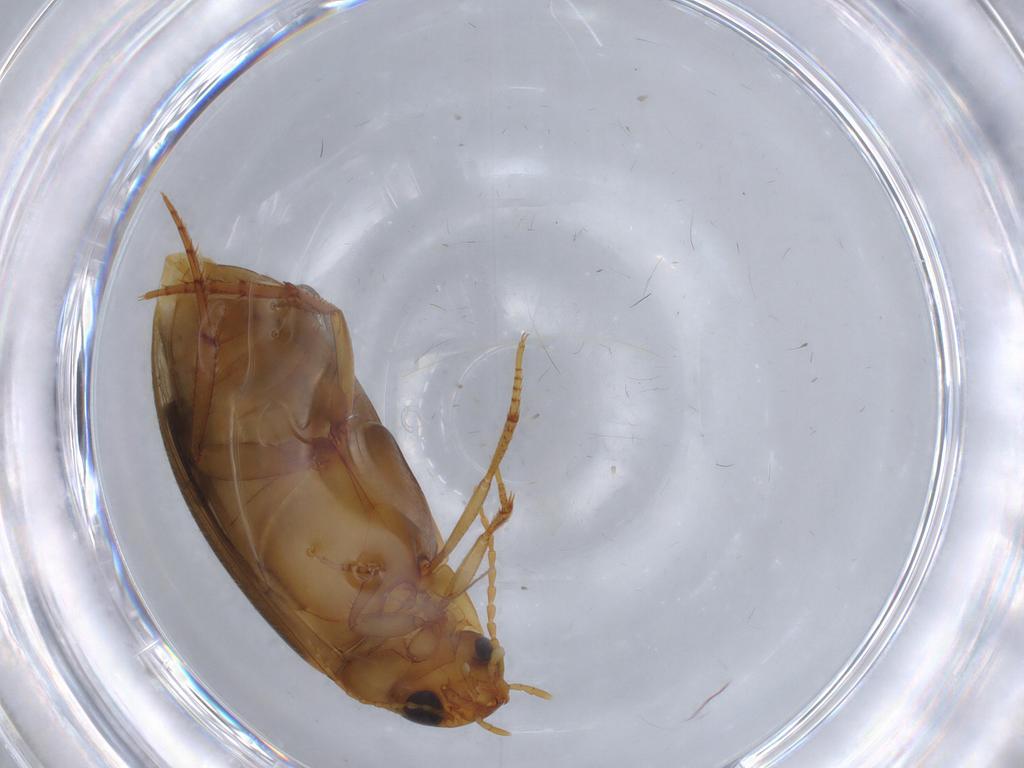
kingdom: Animalia
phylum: Arthropoda
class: Insecta
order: Coleoptera
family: Dytiscidae
